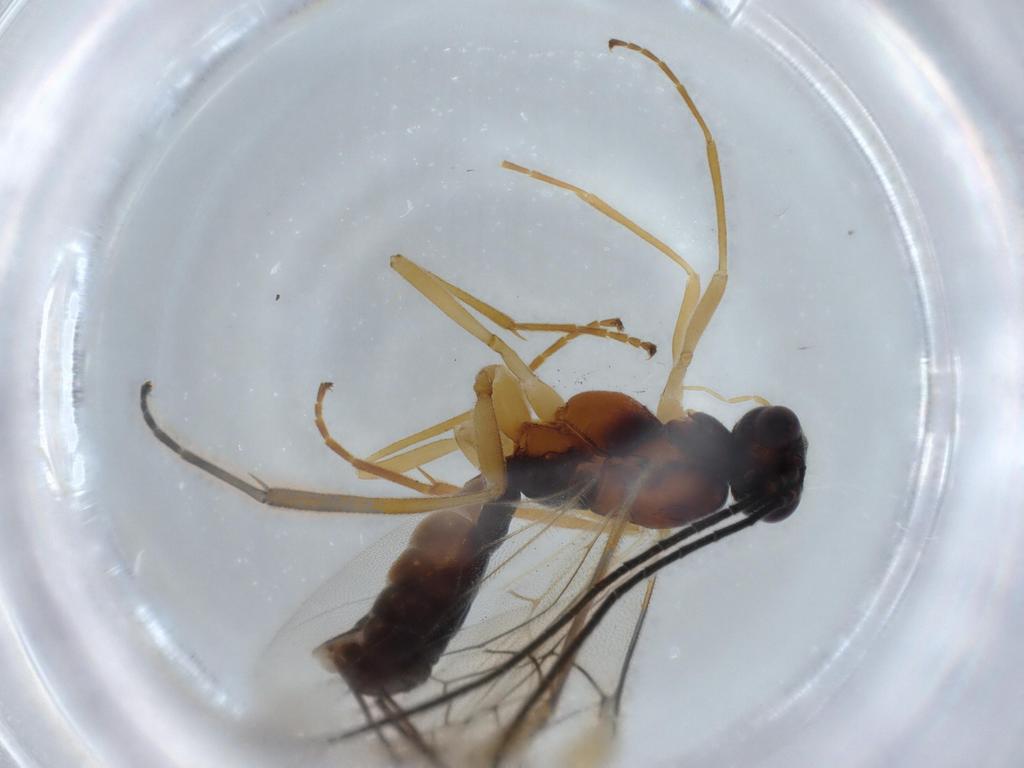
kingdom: Animalia
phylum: Arthropoda
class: Insecta
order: Hymenoptera
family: Braconidae
